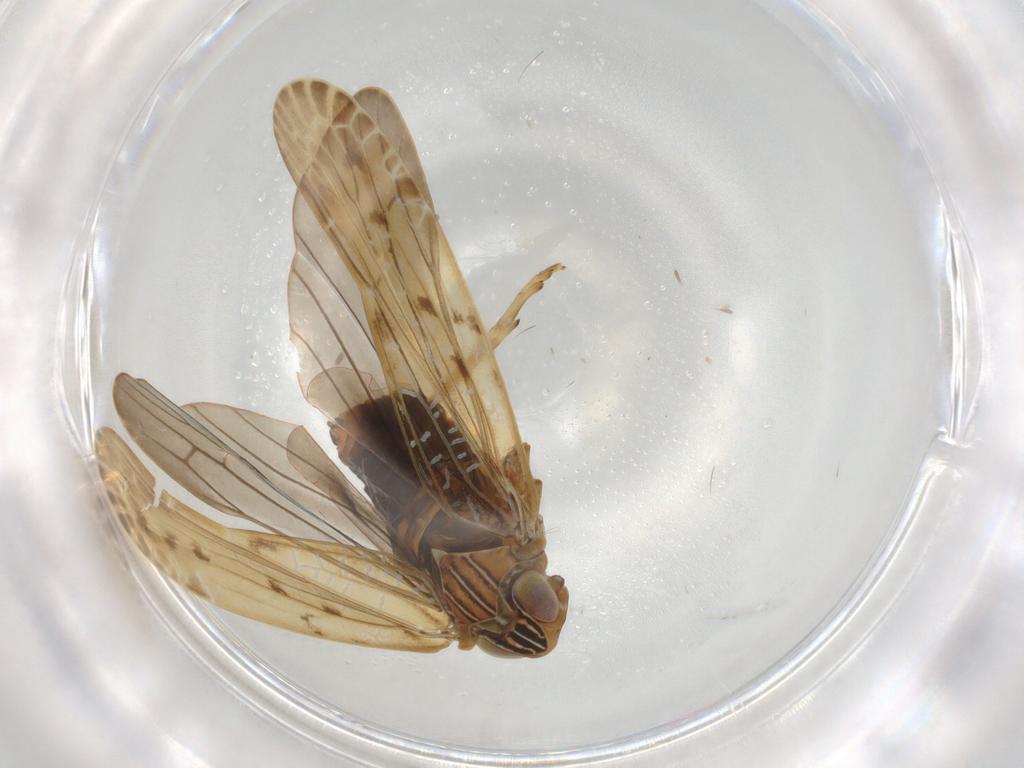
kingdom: Animalia
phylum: Arthropoda
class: Insecta
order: Hemiptera
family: Achilidae
